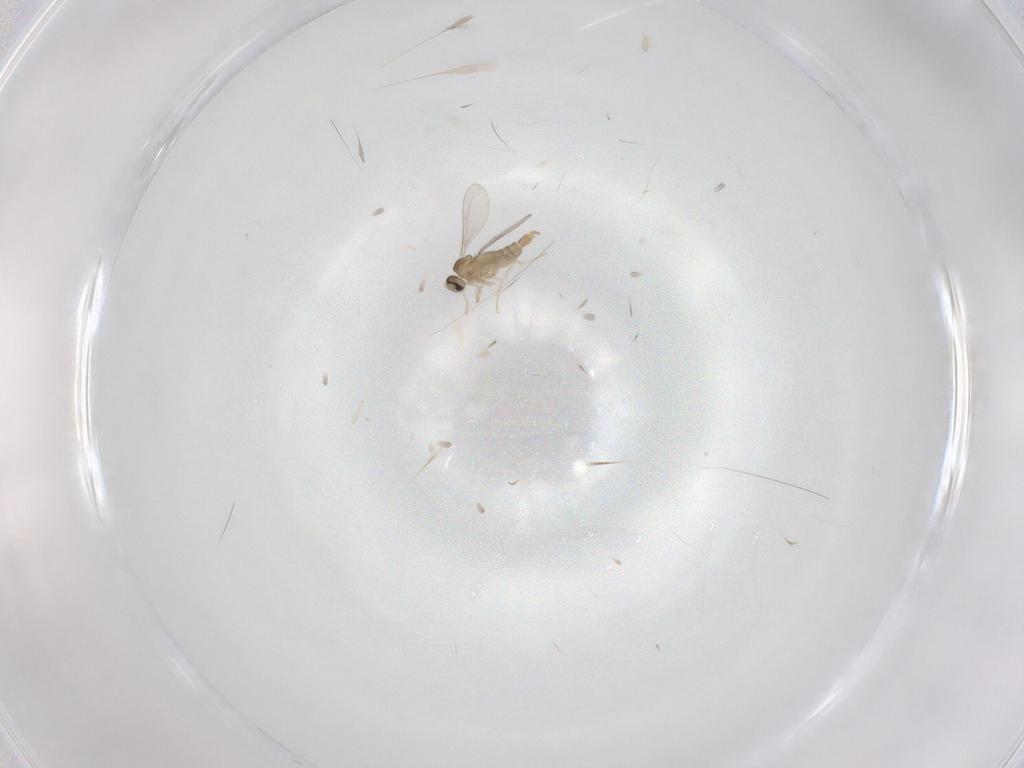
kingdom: Animalia
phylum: Arthropoda
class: Insecta
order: Diptera
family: Cecidomyiidae
